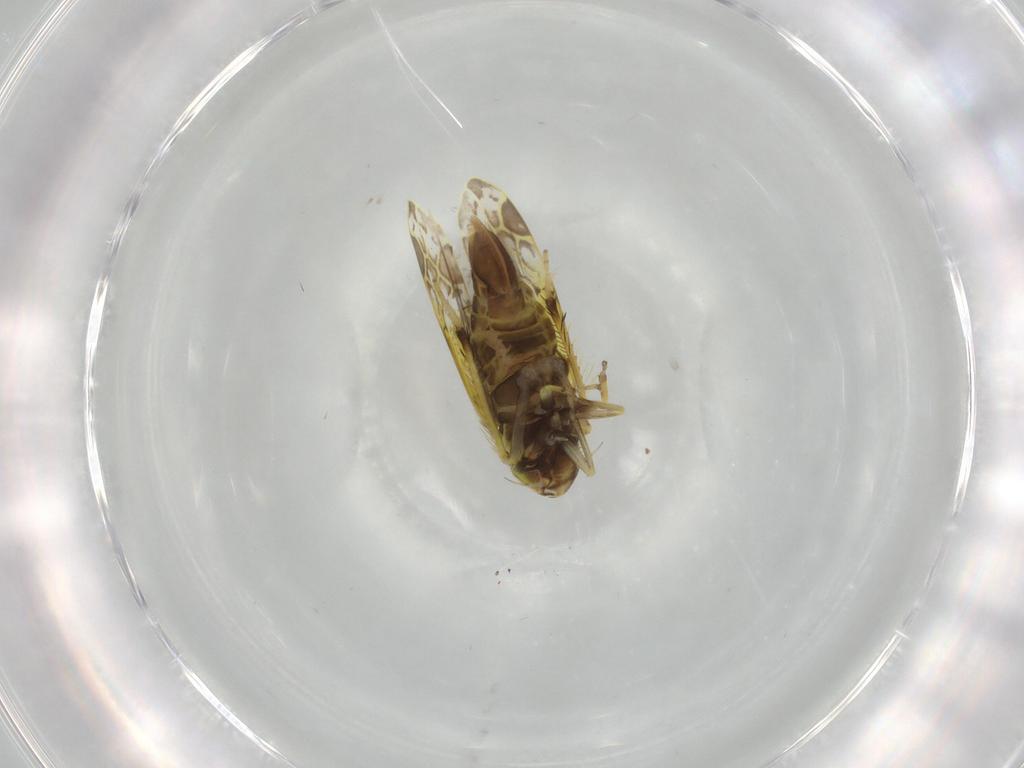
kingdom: Animalia
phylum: Arthropoda
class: Insecta
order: Hemiptera
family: Cicadellidae
